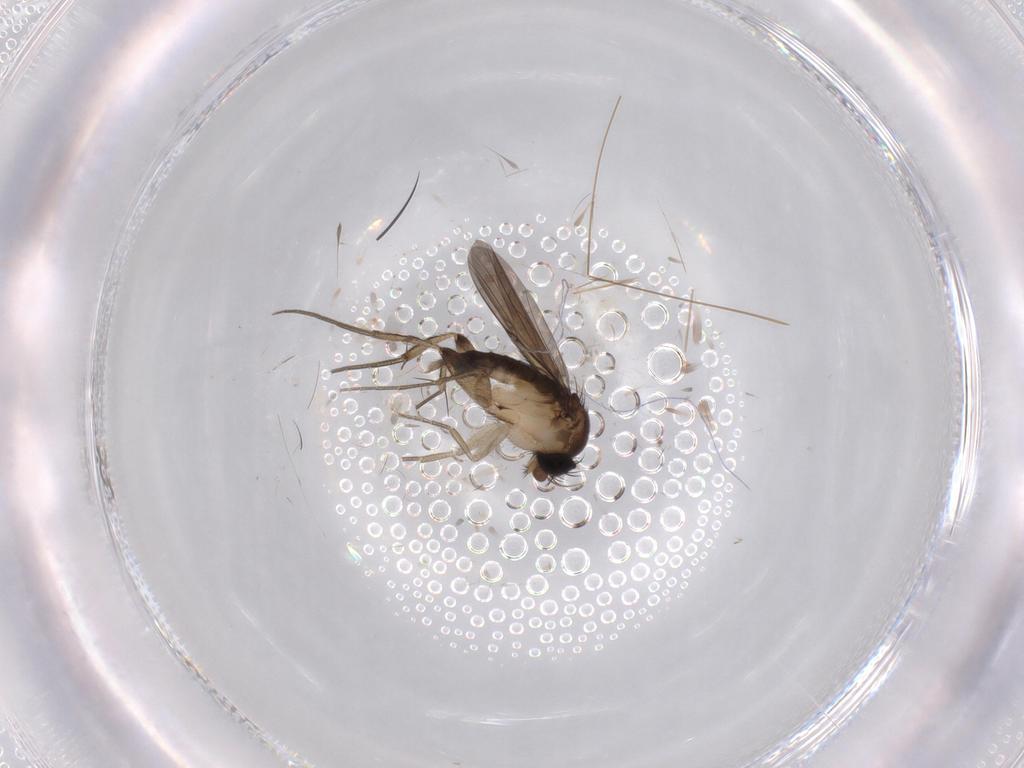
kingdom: Animalia
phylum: Arthropoda
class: Insecta
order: Diptera
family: Cecidomyiidae
